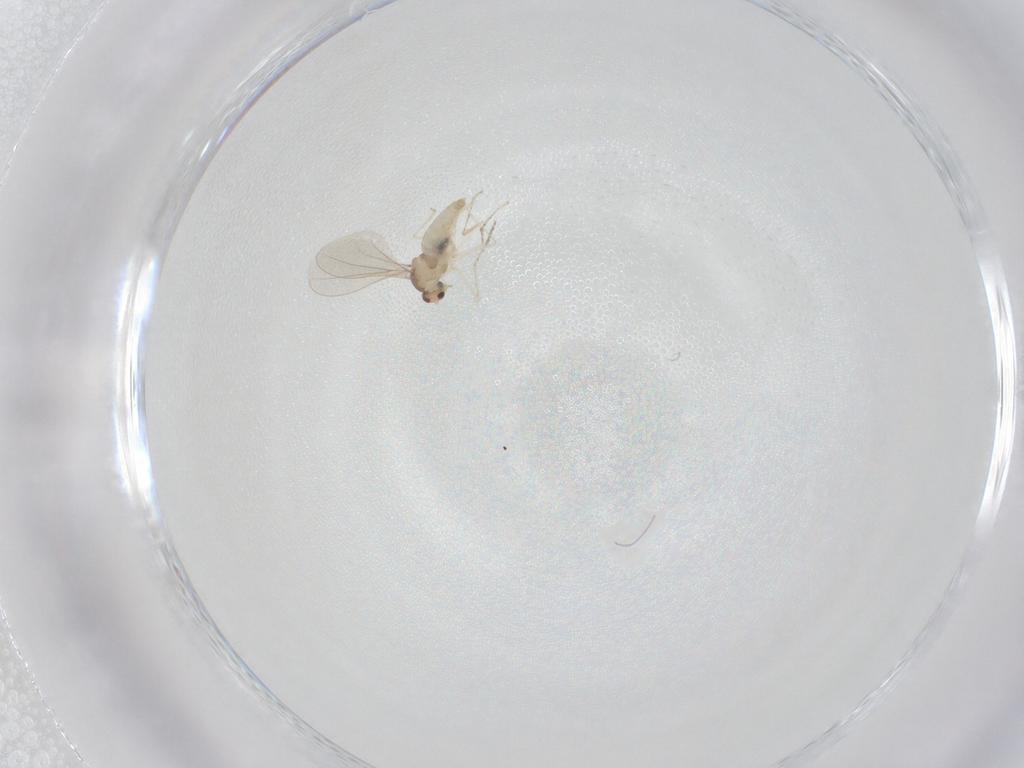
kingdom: Animalia
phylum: Arthropoda
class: Insecta
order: Diptera
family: Cecidomyiidae
